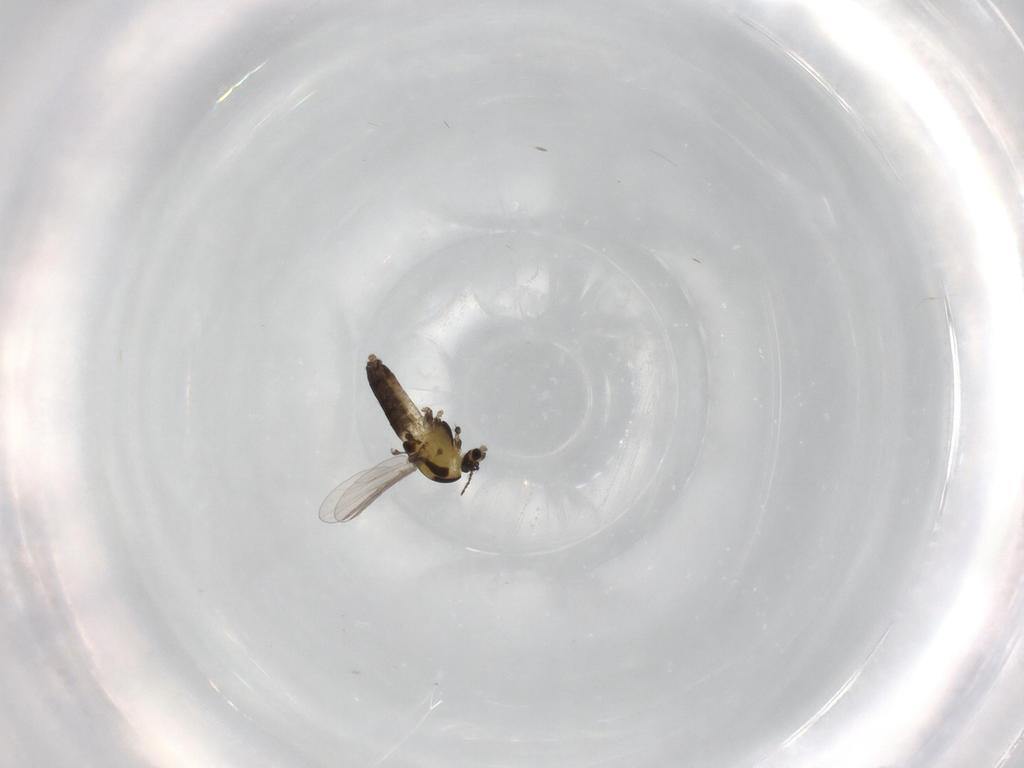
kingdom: Animalia
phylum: Arthropoda
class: Insecta
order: Diptera
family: Chironomidae
